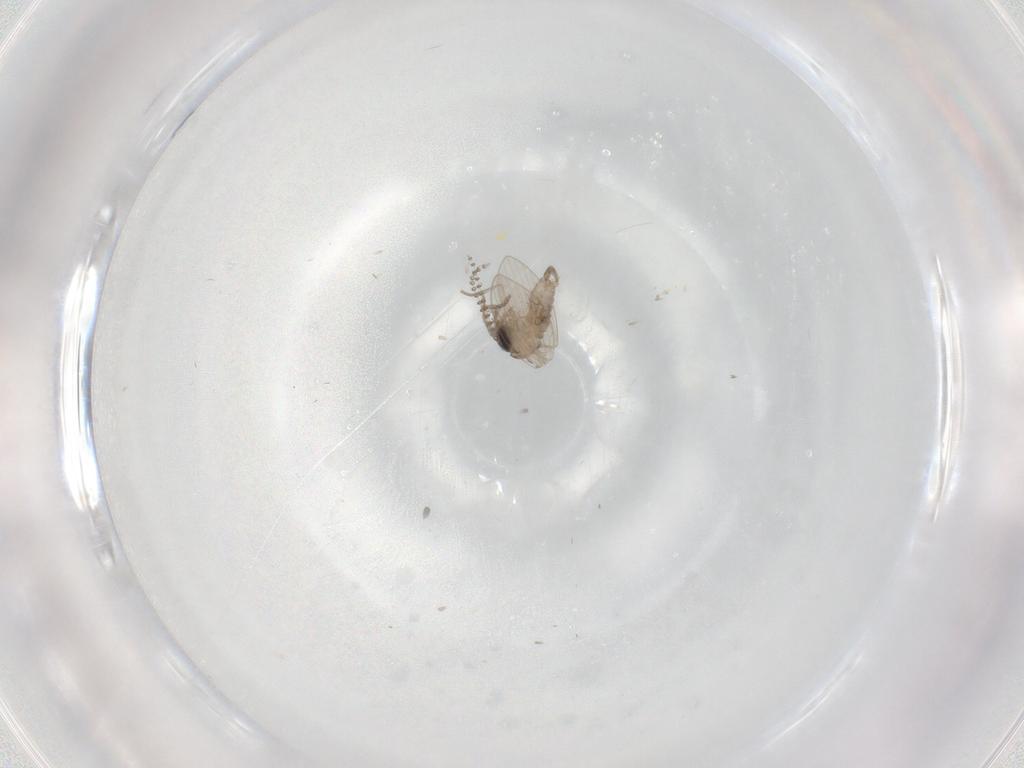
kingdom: Animalia
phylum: Arthropoda
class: Insecta
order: Diptera
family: Psychodidae
